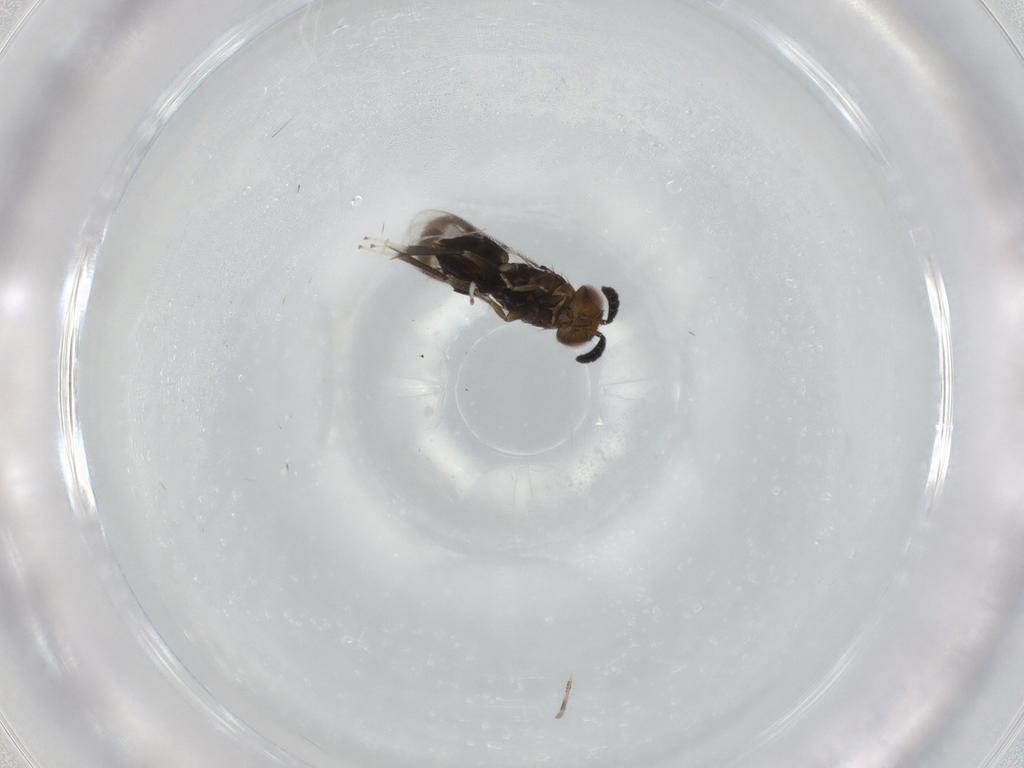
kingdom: Animalia
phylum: Arthropoda
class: Insecta
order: Hymenoptera
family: Aphelinidae
